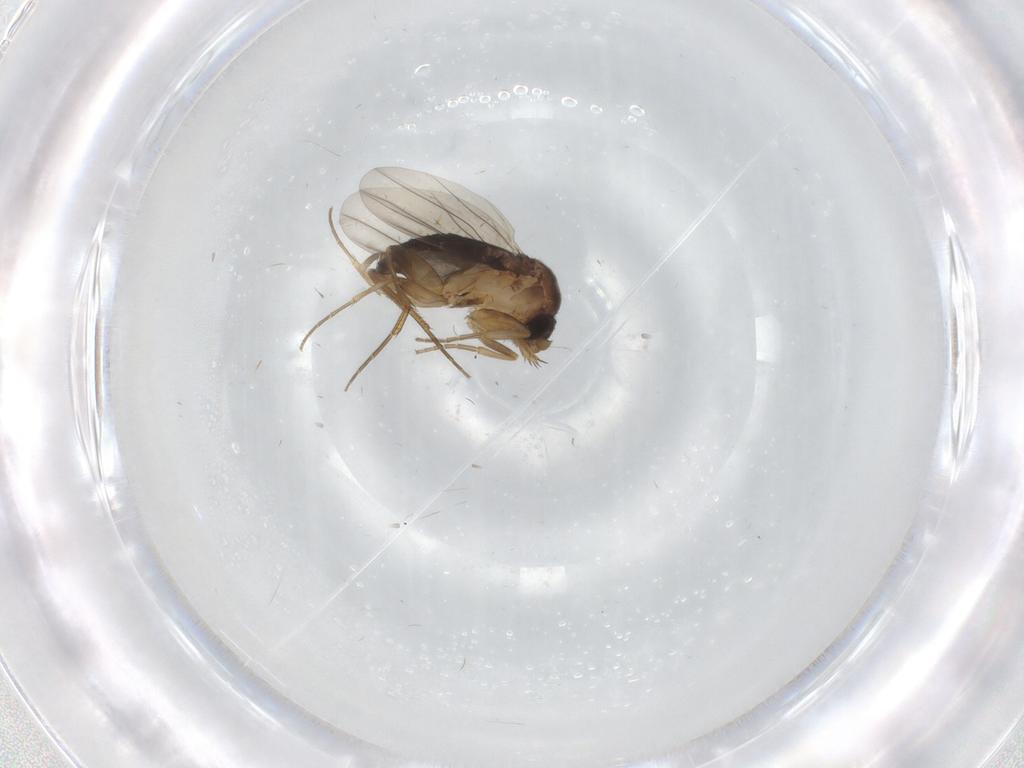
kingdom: Animalia
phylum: Arthropoda
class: Insecta
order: Diptera
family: Phoridae
